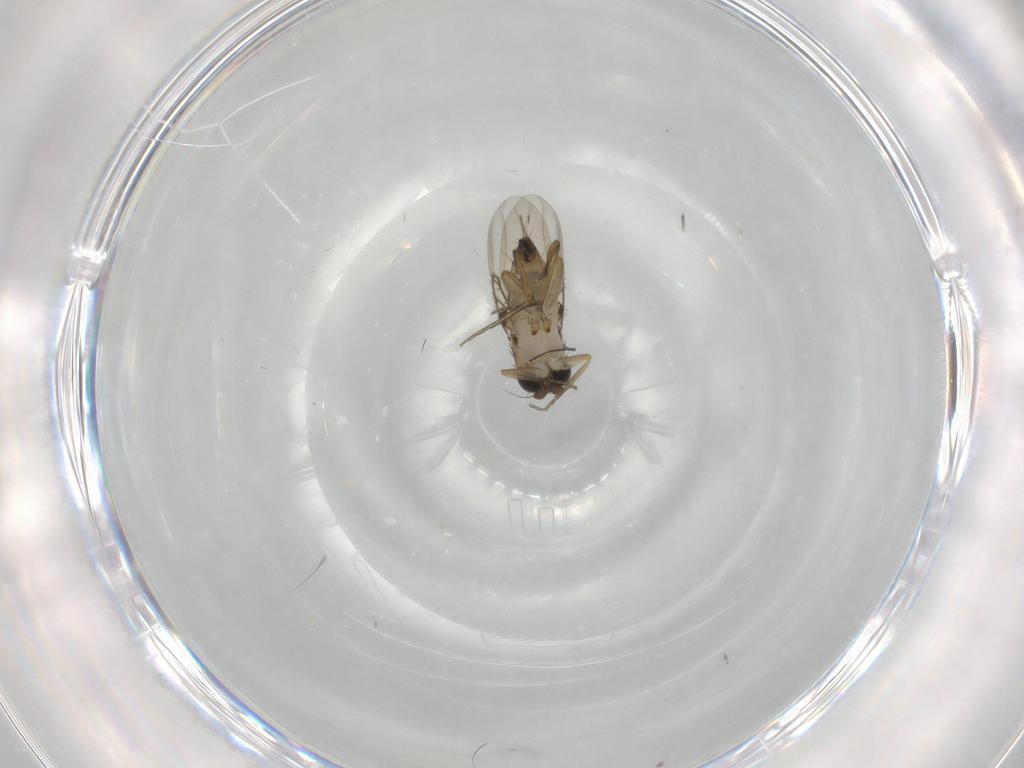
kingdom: Animalia
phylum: Arthropoda
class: Insecta
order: Diptera
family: Phoridae
